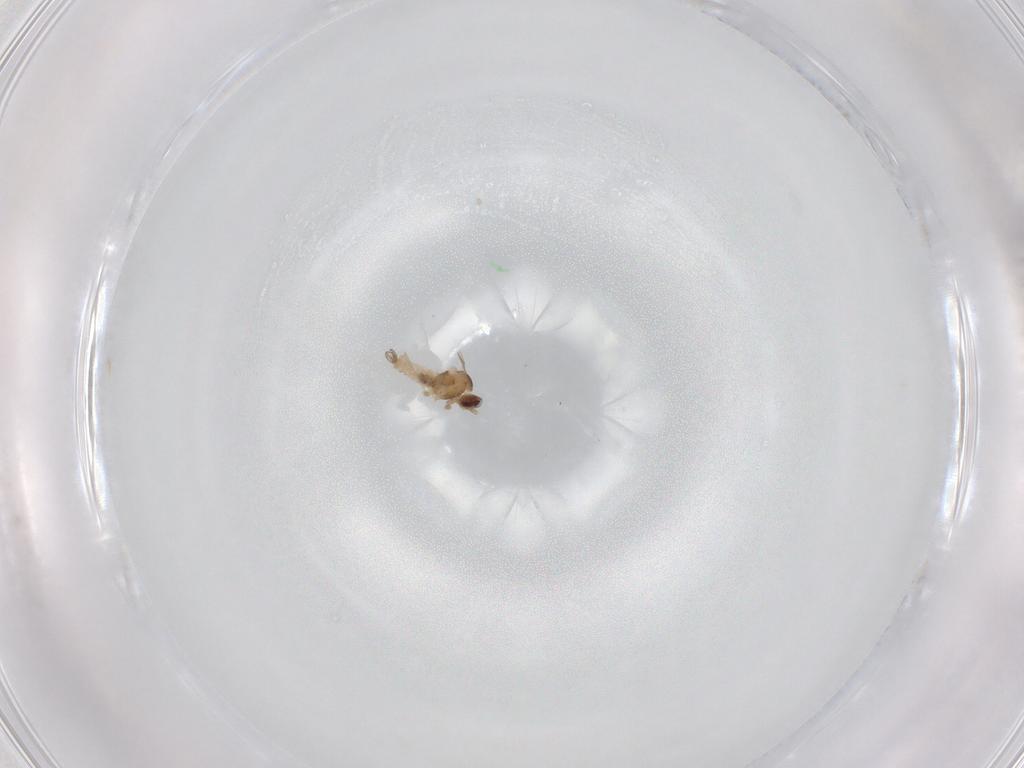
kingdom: Animalia
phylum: Arthropoda
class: Insecta
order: Diptera
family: Cecidomyiidae
